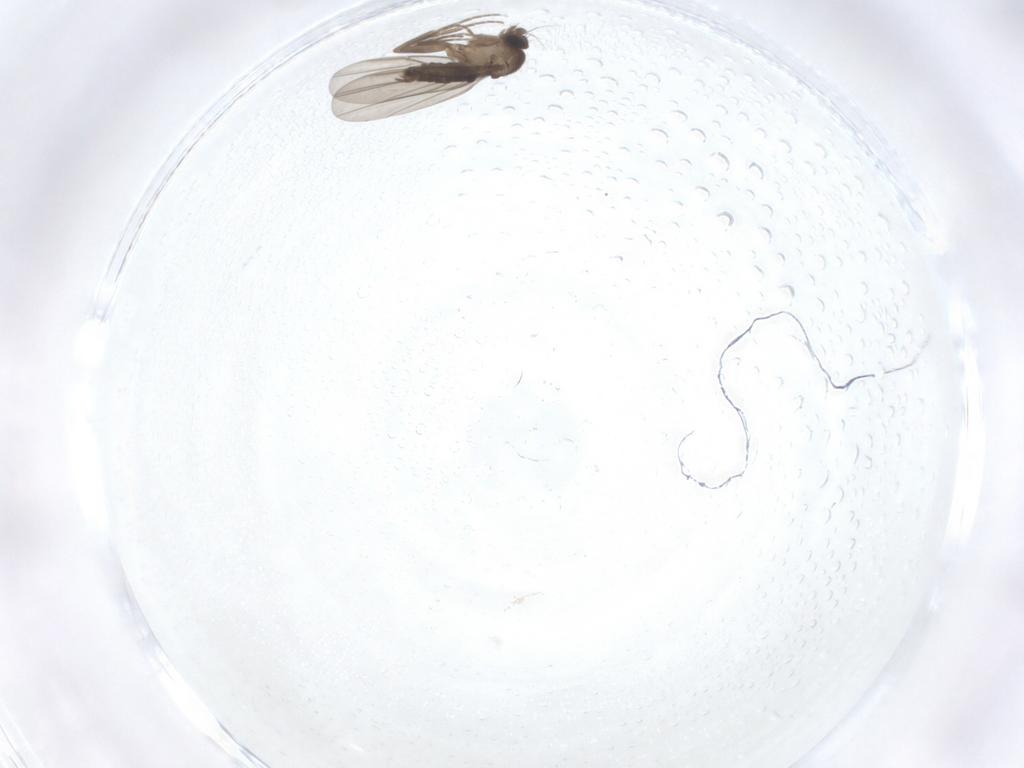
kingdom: Animalia
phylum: Arthropoda
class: Insecta
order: Diptera
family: Phoridae
